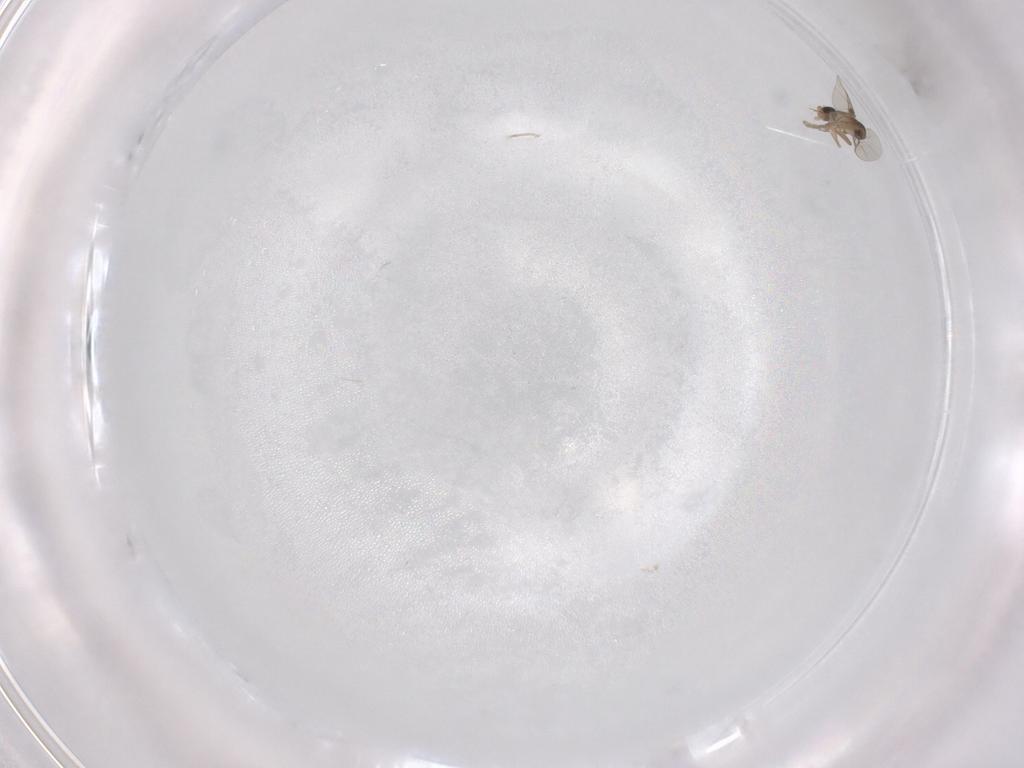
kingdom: Animalia
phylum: Arthropoda
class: Insecta
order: Diptera
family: Phoridae
